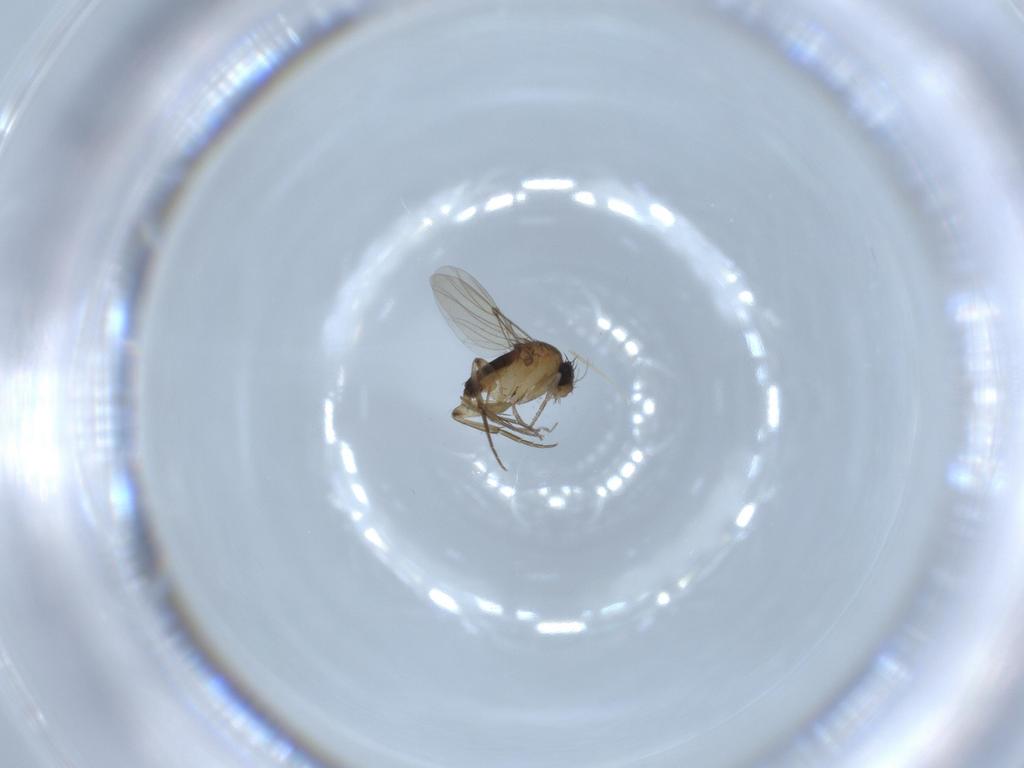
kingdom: Animalia
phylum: Arthropoda
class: Insecta
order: Diptera
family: Phoridae
